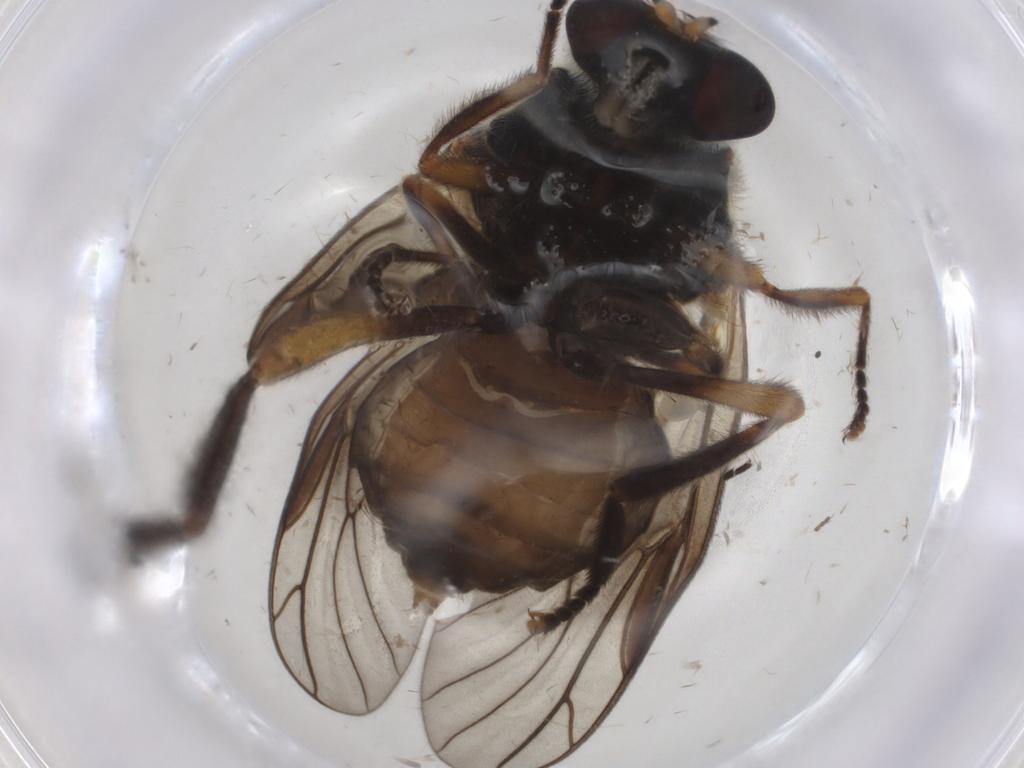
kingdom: Animalia
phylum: Arthropoda
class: Insecta
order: Diptera
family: Stratiomyidae
